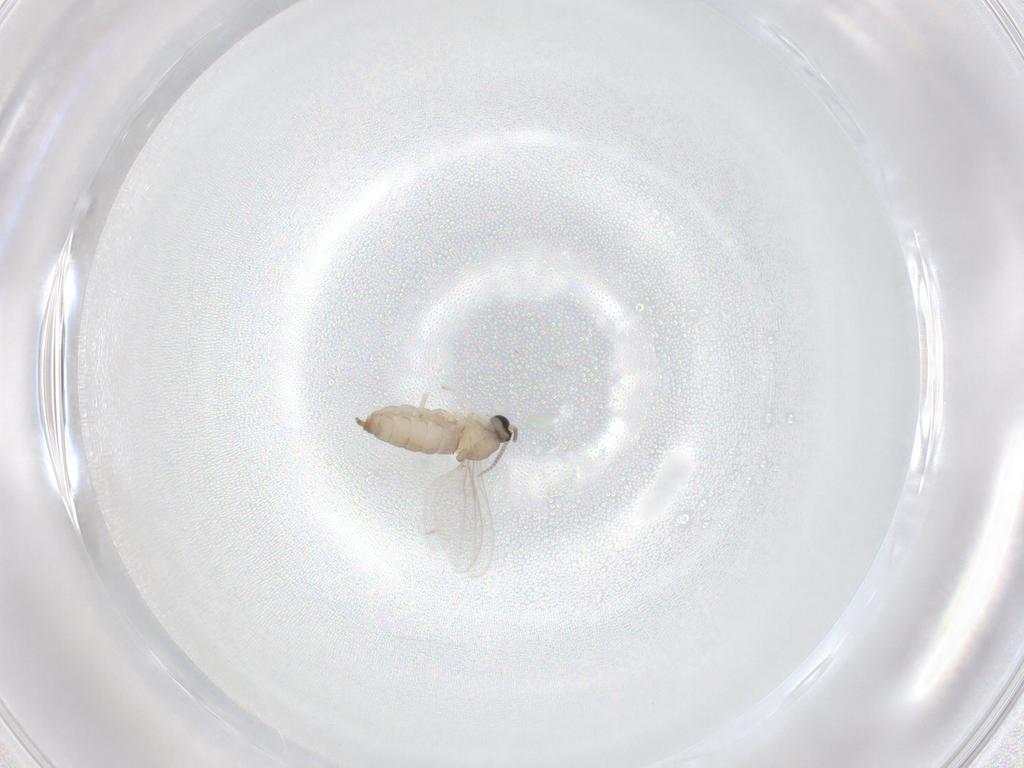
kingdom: Animalia
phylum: Arthropoda
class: Insecta
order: Diptera
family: Cecidomyiidae
